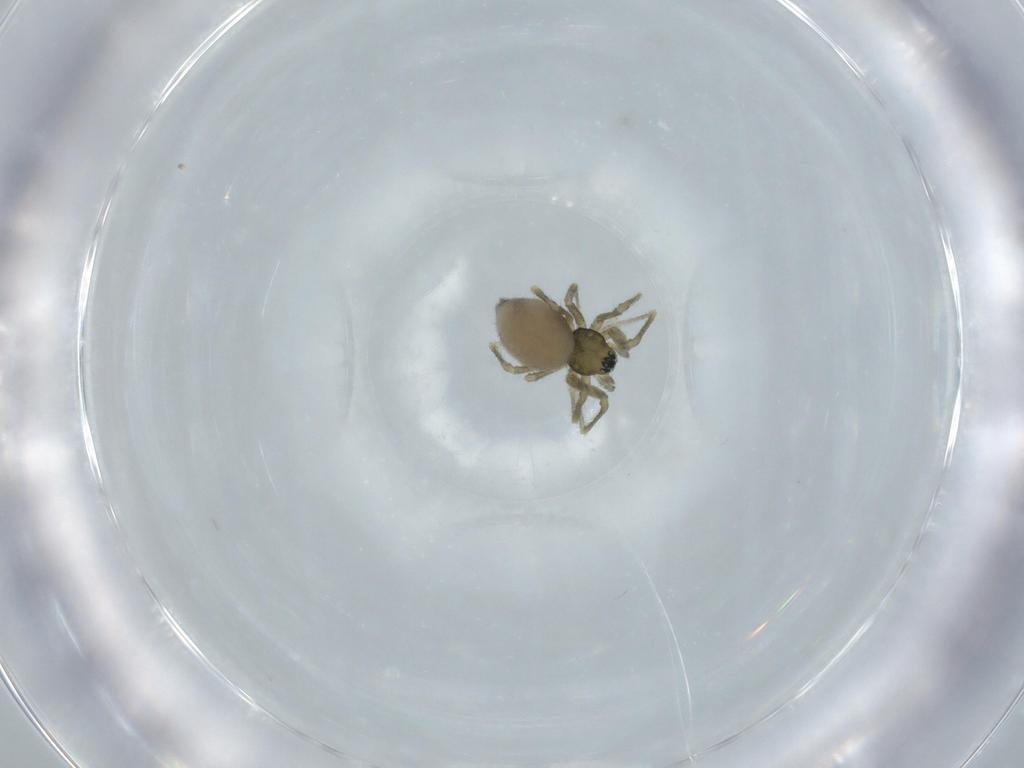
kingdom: Animalia
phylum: Arthropoda
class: Arachnida
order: Araneae
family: Linyphiidae
